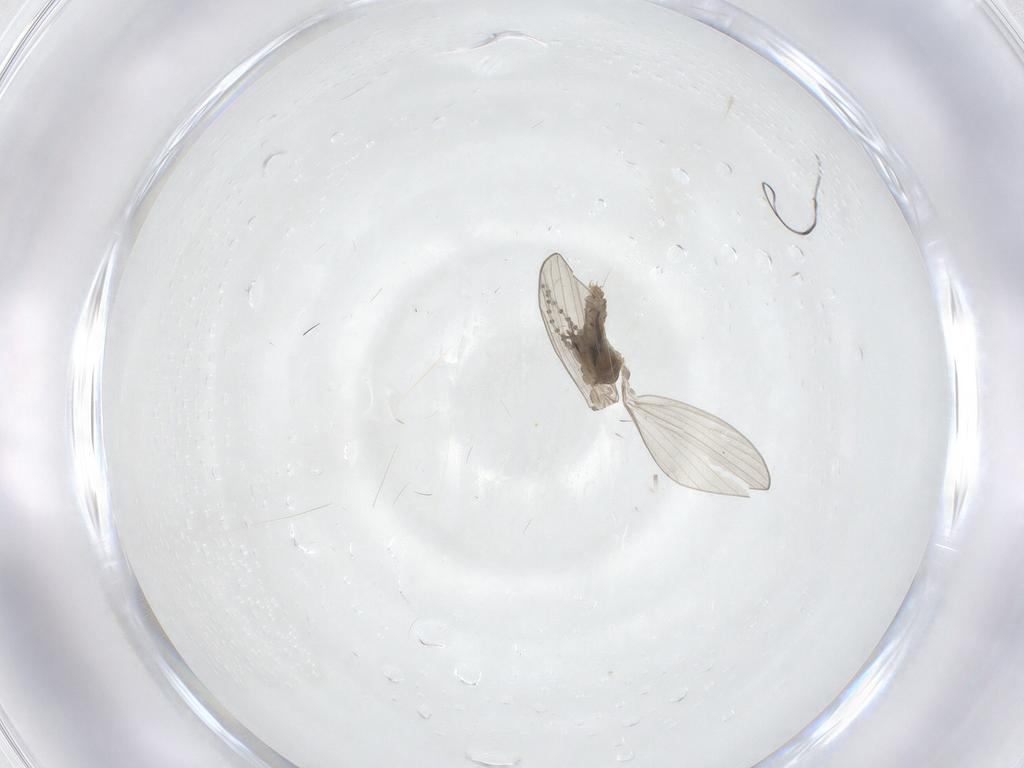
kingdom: Animalia
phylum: Arthropoda
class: Insecta
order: Diptera
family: Psychodidae
